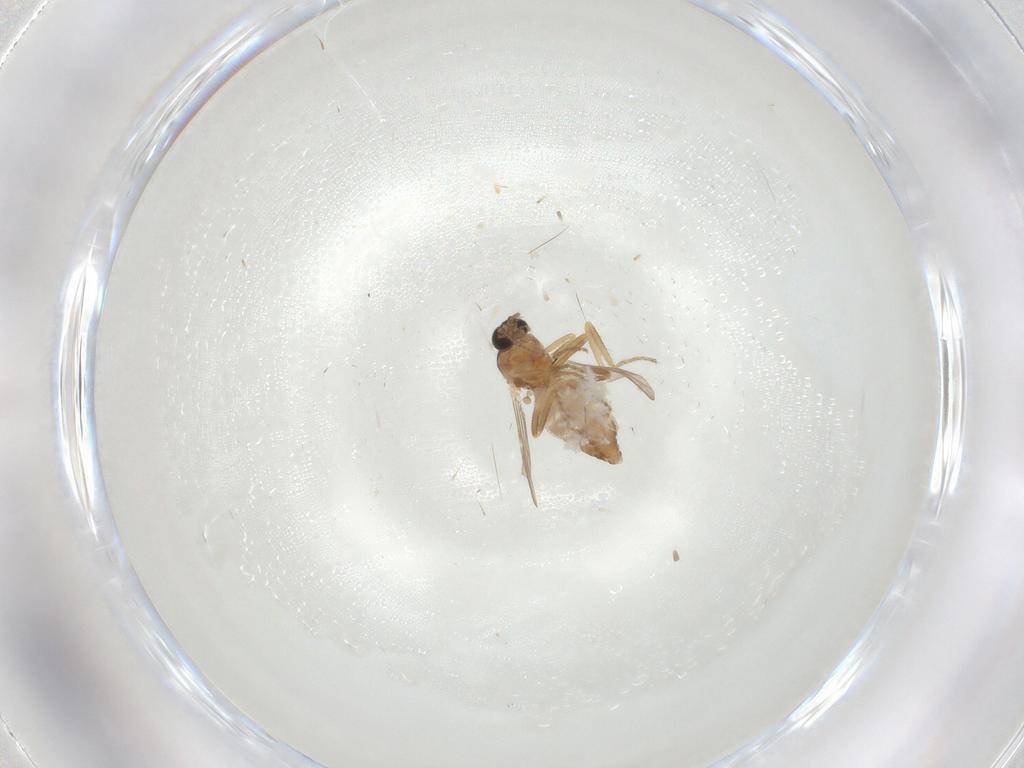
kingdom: Animalia
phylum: Arthropoda
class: Insecta
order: Diptera
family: Ceratopogonidae
